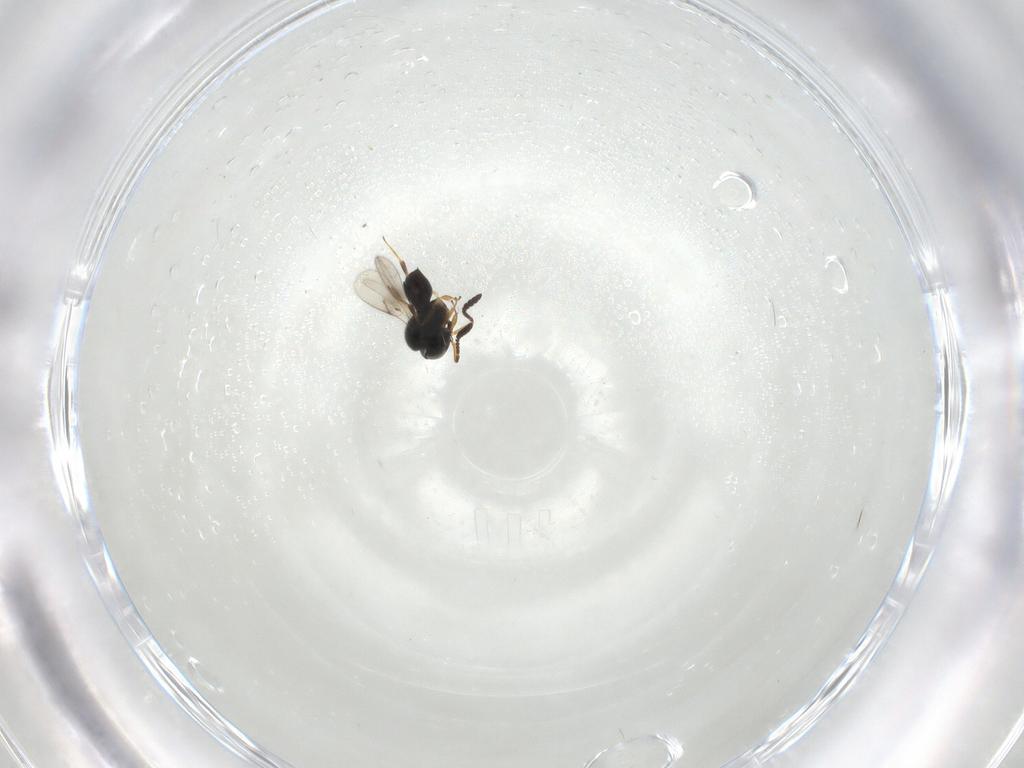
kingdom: Animalia
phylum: Arthropoda
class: Insecta
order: Hymenoptera
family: Scelionidae
